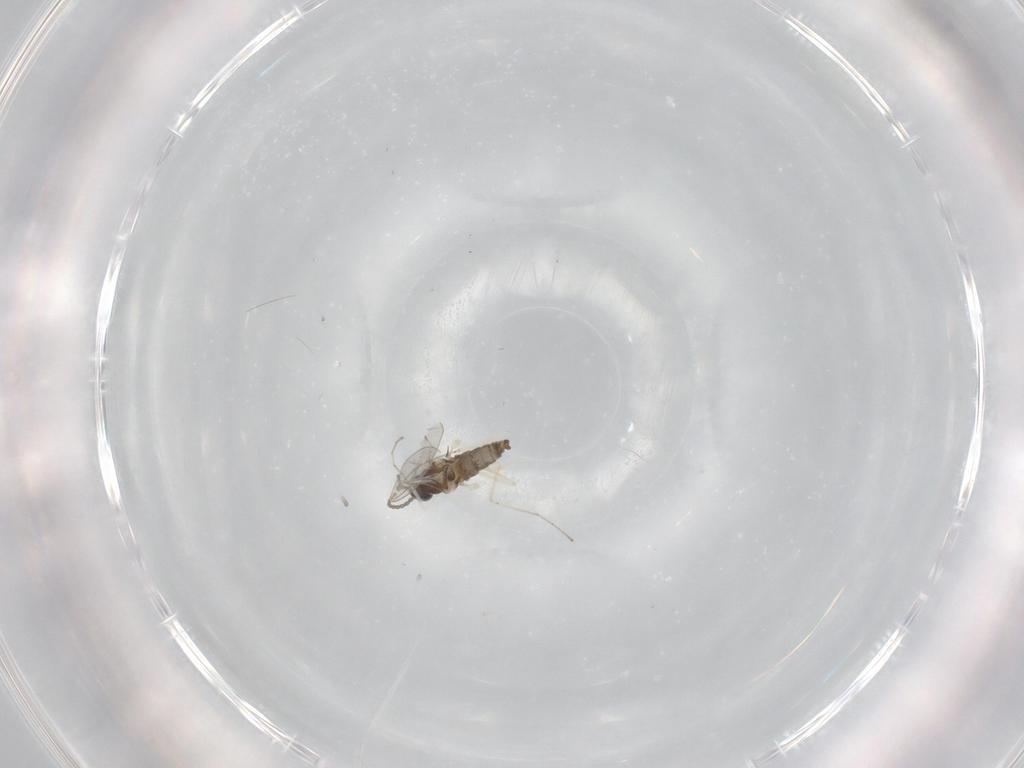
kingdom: Animalia
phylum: Arthropoda
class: Insecta
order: Diptera
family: Cecidomyiidae
